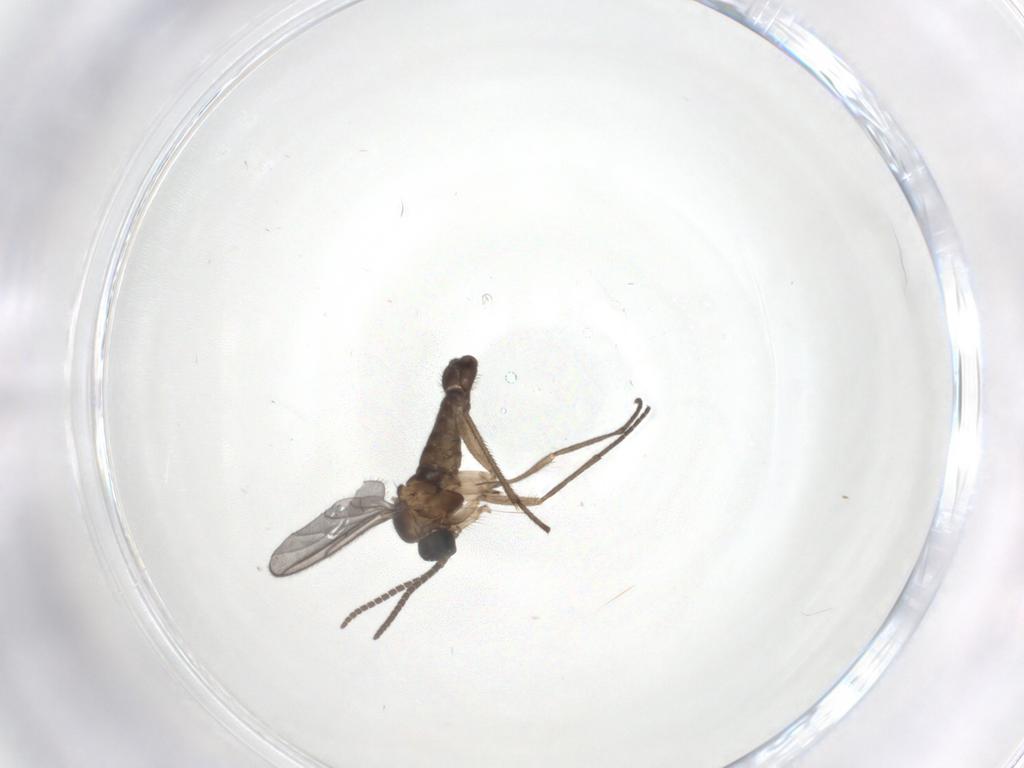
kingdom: Animalia
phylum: Arthropoda
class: Insecta
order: Diptera
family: Sciaridae
